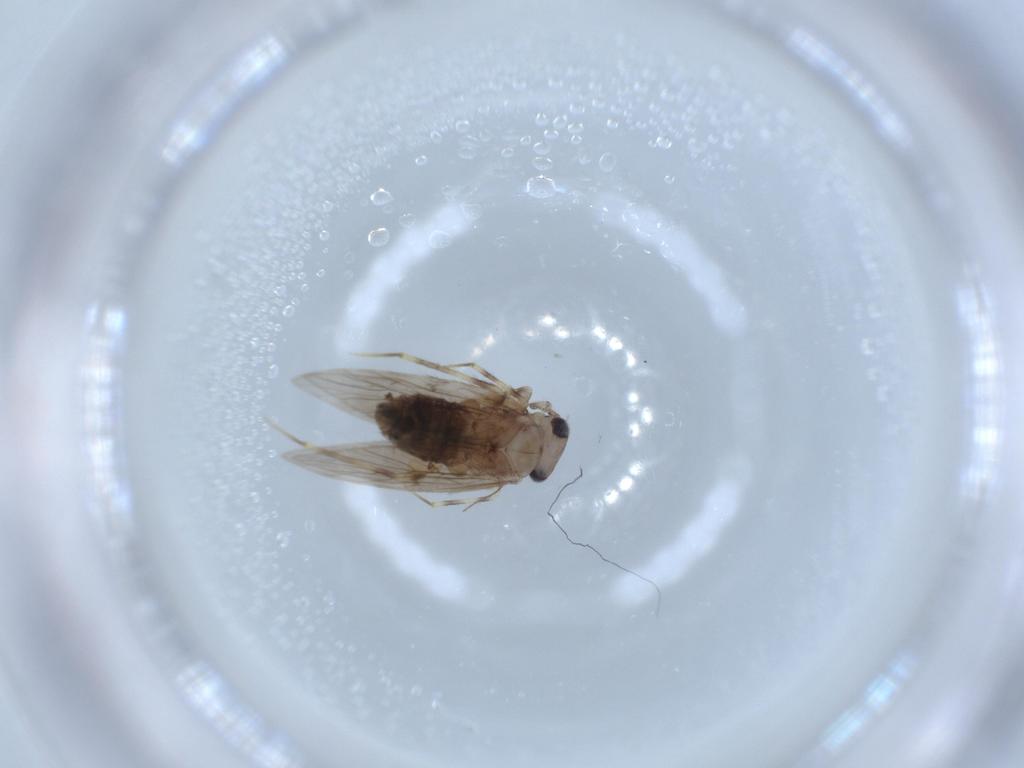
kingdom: Animalia
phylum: Arthropoda
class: Insecta
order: Psocodea
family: Lepidopsocidae
